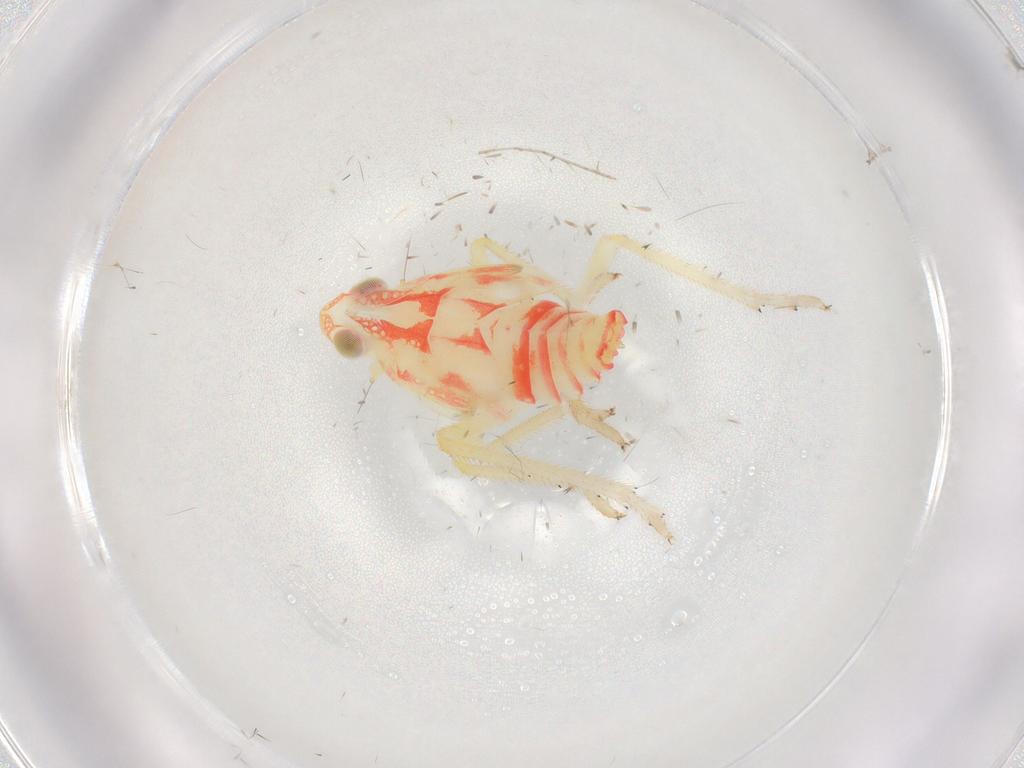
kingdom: Animalia
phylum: Arthropoda
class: Insecta
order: Hemiptera
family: Tropiduchidae
